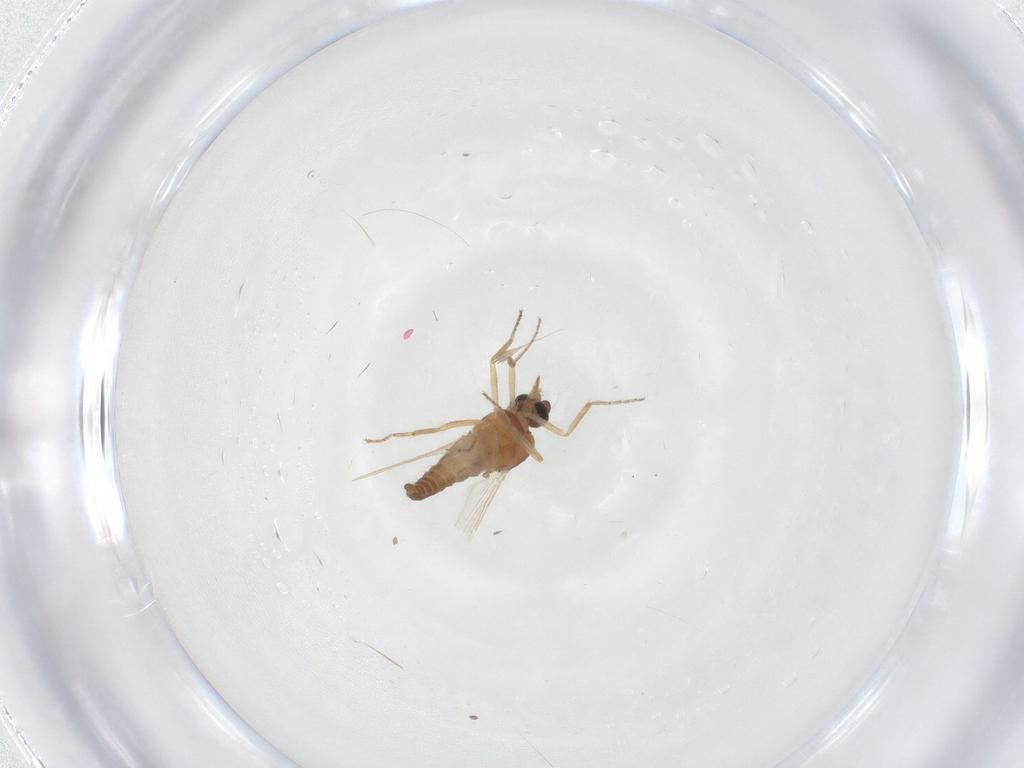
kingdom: Animalia
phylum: Arthropoda
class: Insecta
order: Diptera
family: Ceratopogonidae
